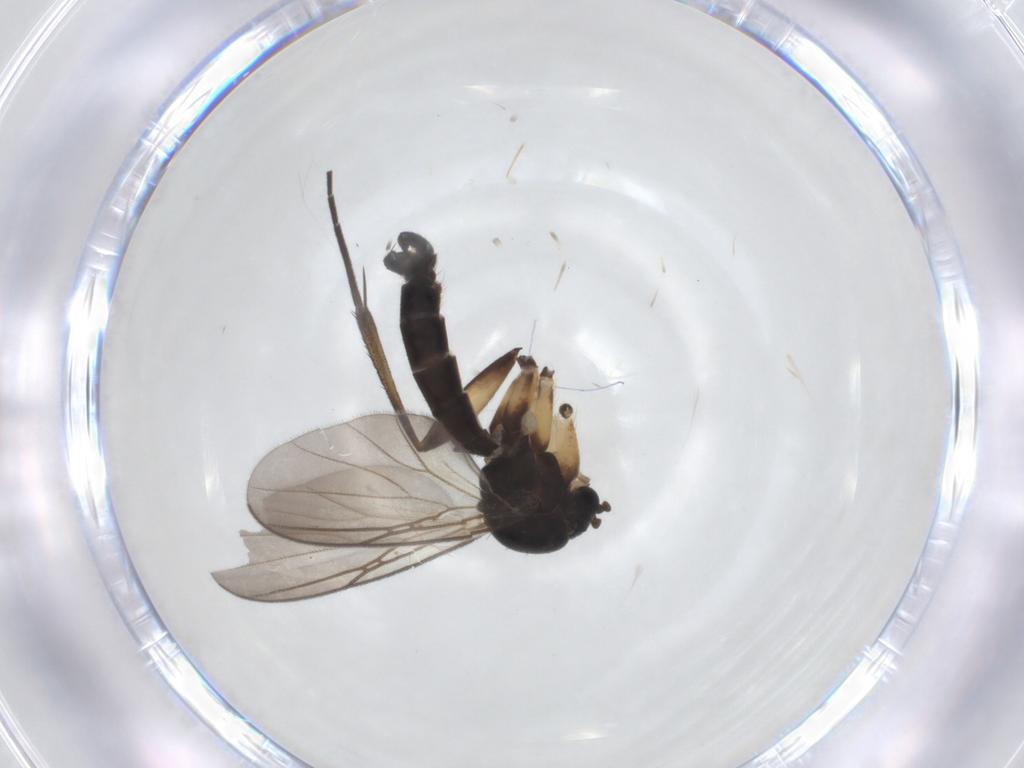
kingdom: Animalia
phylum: Arthropoda
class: Insecta
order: Diptera
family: Mycetophilidae
